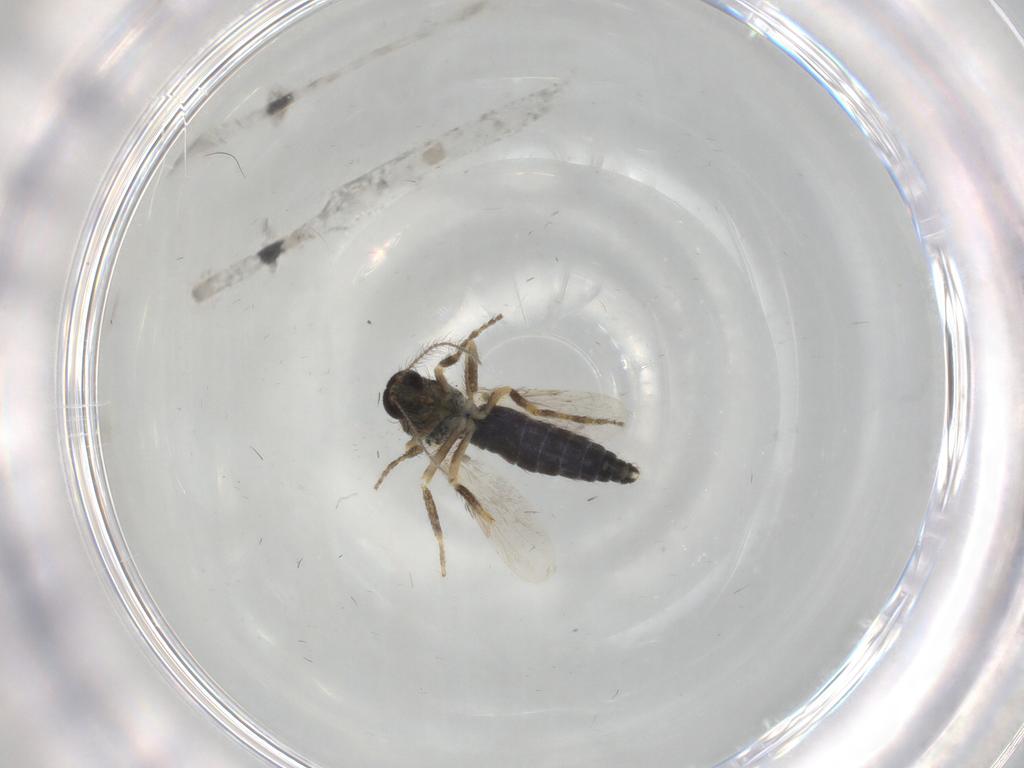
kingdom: Animalia
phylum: Arthropoda
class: Insecta
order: Diptera
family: Ceratopogonidae
